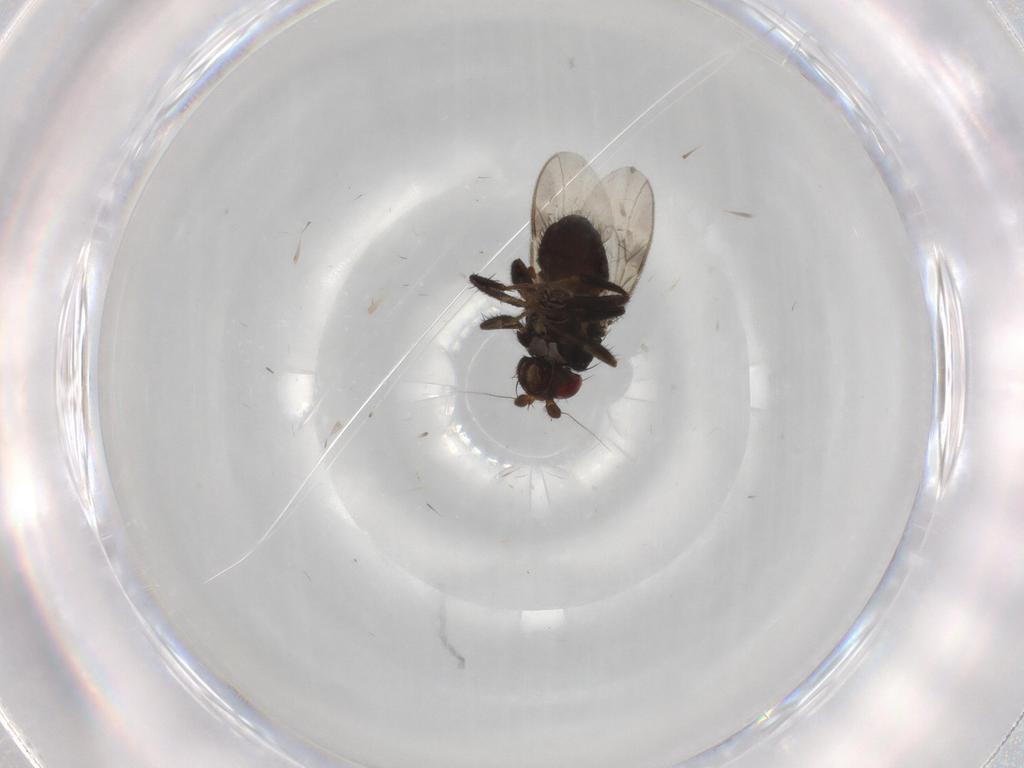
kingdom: Animalia
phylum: Arthropoda
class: Insecta
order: Diptera
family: Sphaeroceridae
